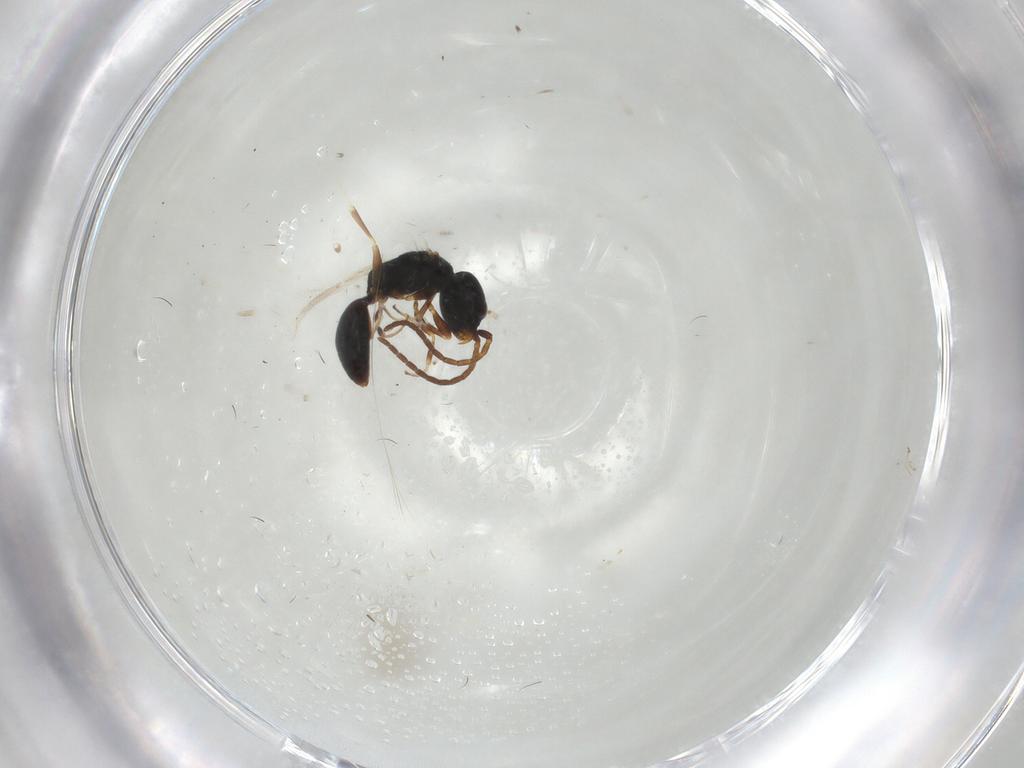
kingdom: Animalia
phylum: Arthropoda
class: Insecta
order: Hymenoptera
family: Bethylidae
